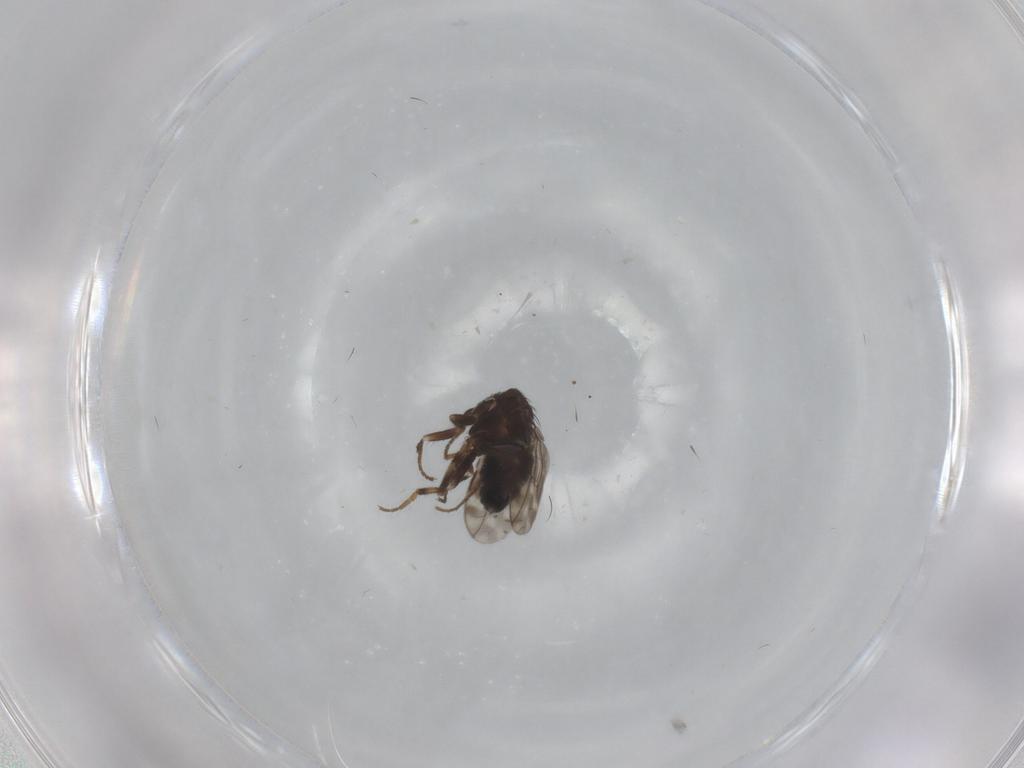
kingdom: Animalia
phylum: Arthropoda
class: Insecta
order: Diptera
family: Sphaeroceridae
